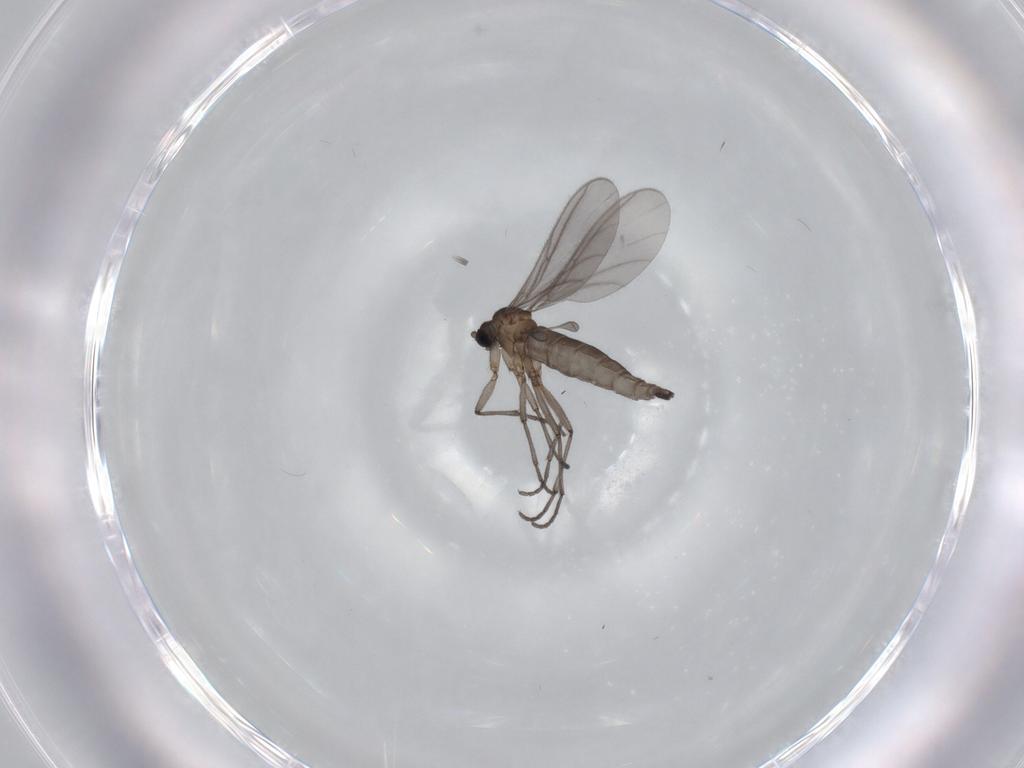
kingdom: Animalia
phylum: Arthropoda
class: Insecta
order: Diptera
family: Sciaridae
